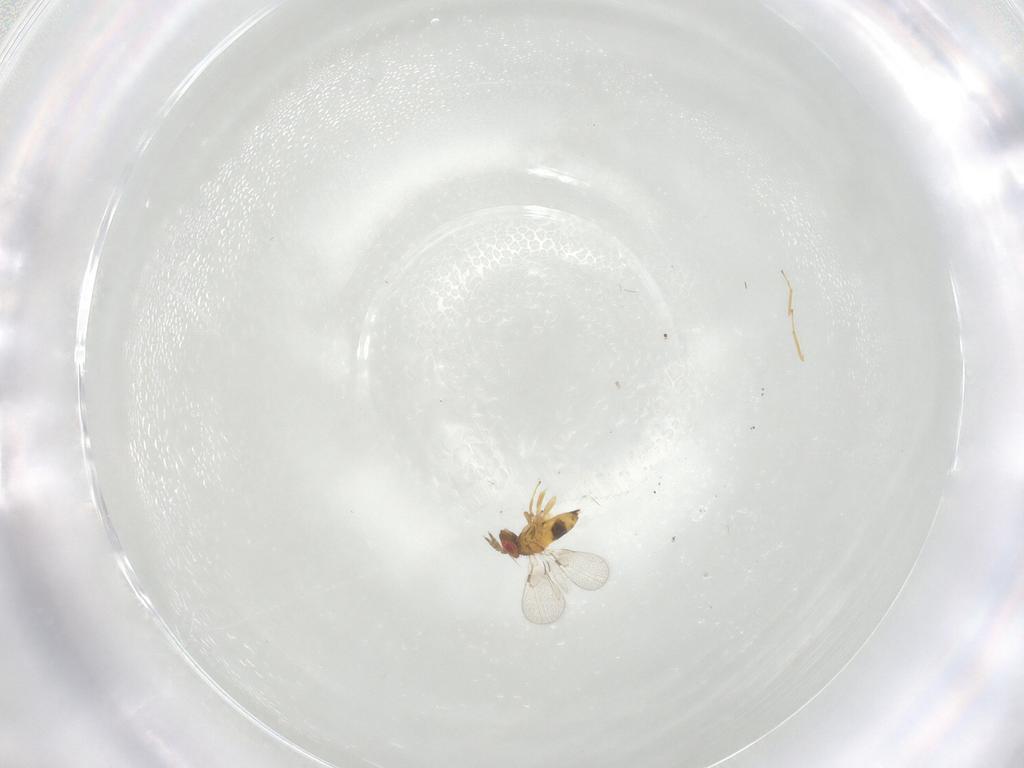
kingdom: Animalia
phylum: Arthropoda
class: Insecta
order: Hymenoptera
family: Trichogrammatidae
